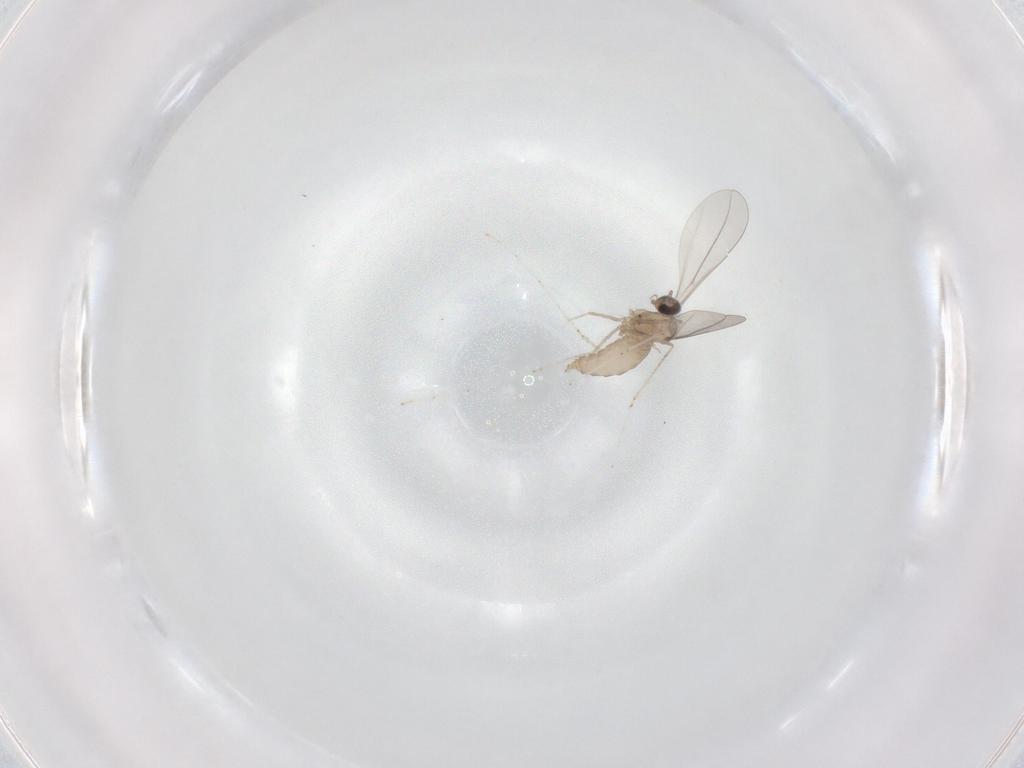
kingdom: Animalia
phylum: Arthropoda
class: Insecta
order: Diptera
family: Cecidomyiidae
